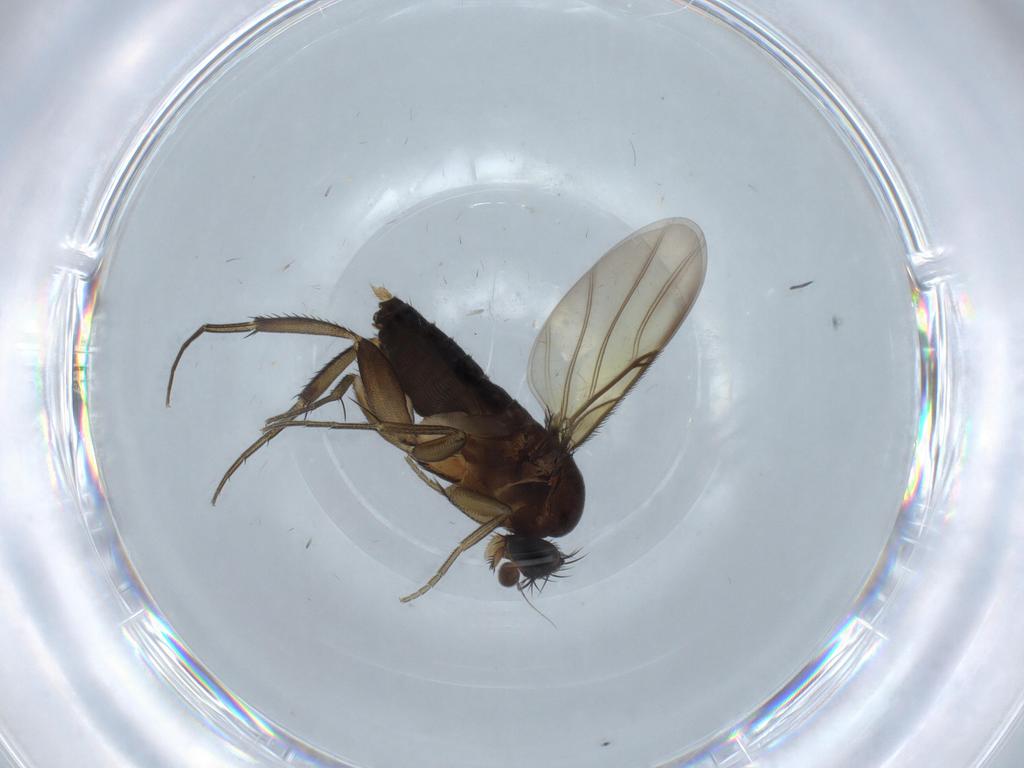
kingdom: Animalia
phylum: Arthropoda
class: Insecta
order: Diptera
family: Phoridae
